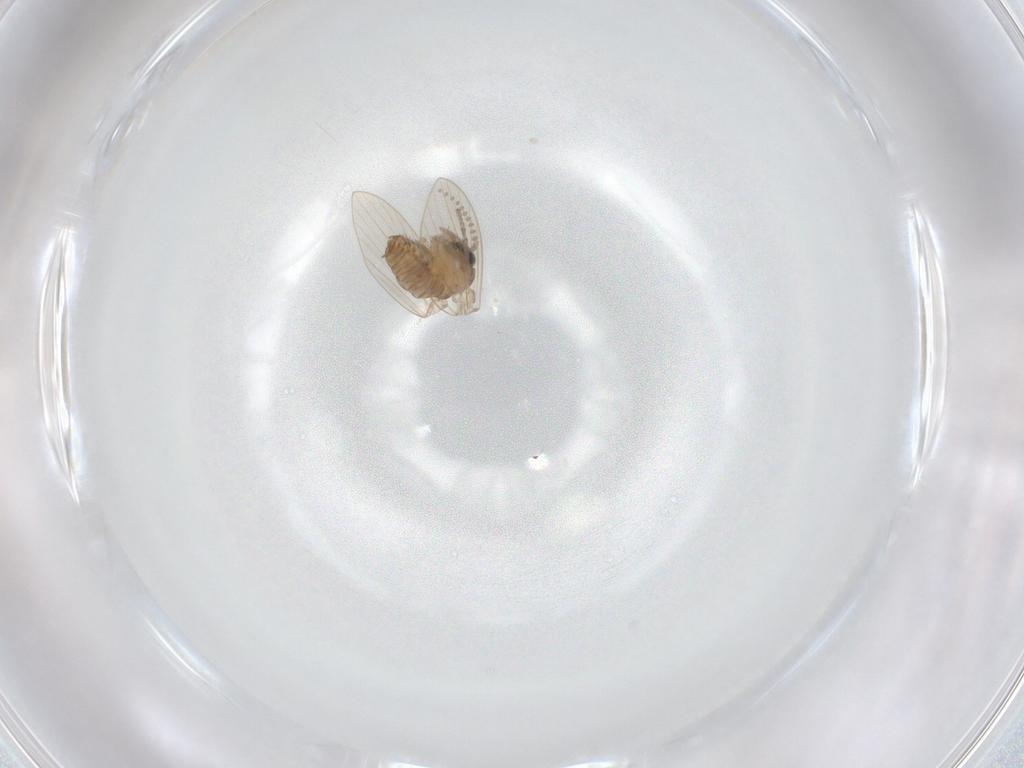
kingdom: Animalia
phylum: Arthropoda
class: Insecta
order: Diptera
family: Psychodidae
